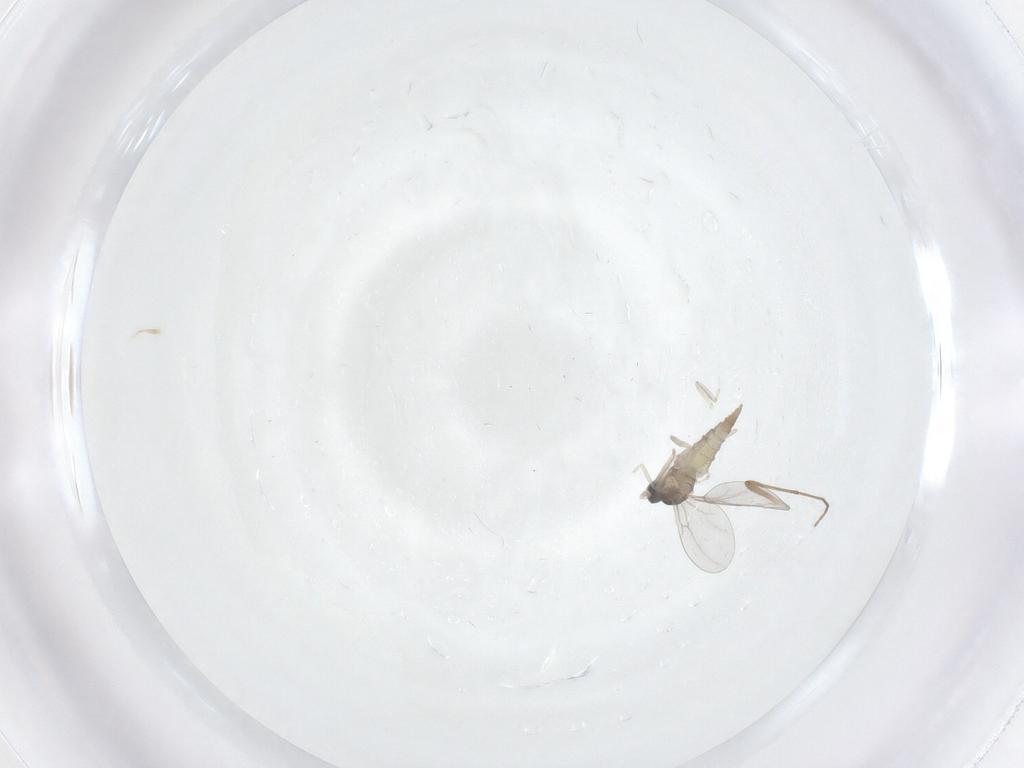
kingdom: Animalia
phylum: Arthropoda
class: Insecta
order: Diptera
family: Cecidomyiidae
